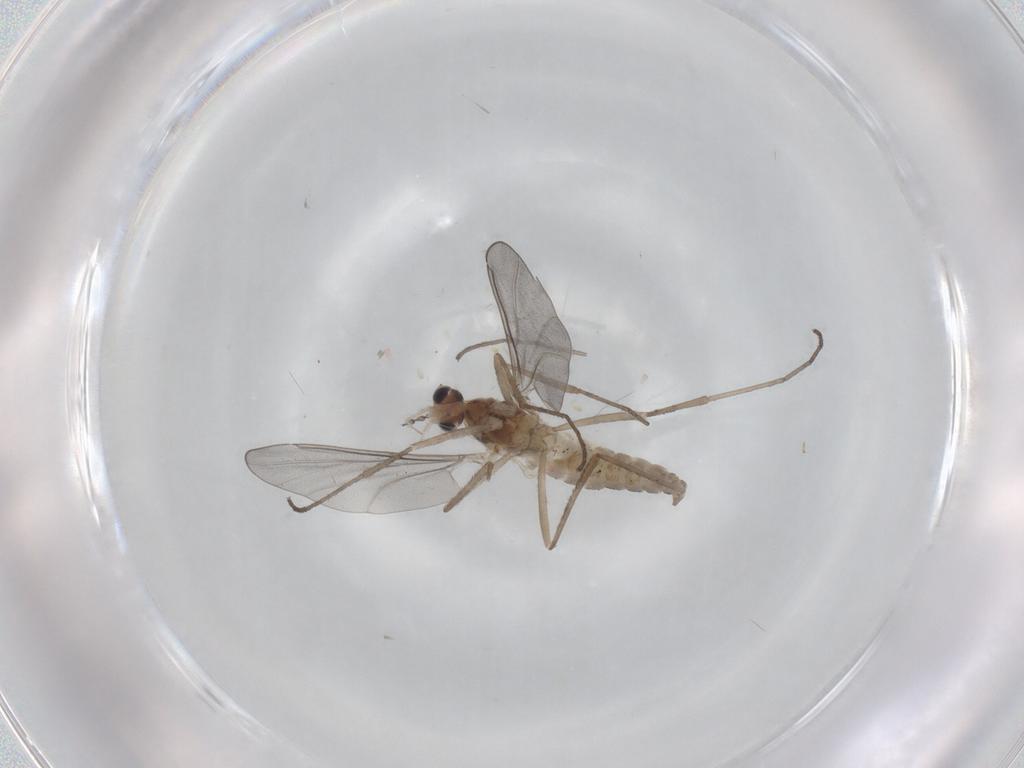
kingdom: Animalia
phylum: Arthropoda
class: Insecta
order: Diptera
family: Cecidomyiidae
